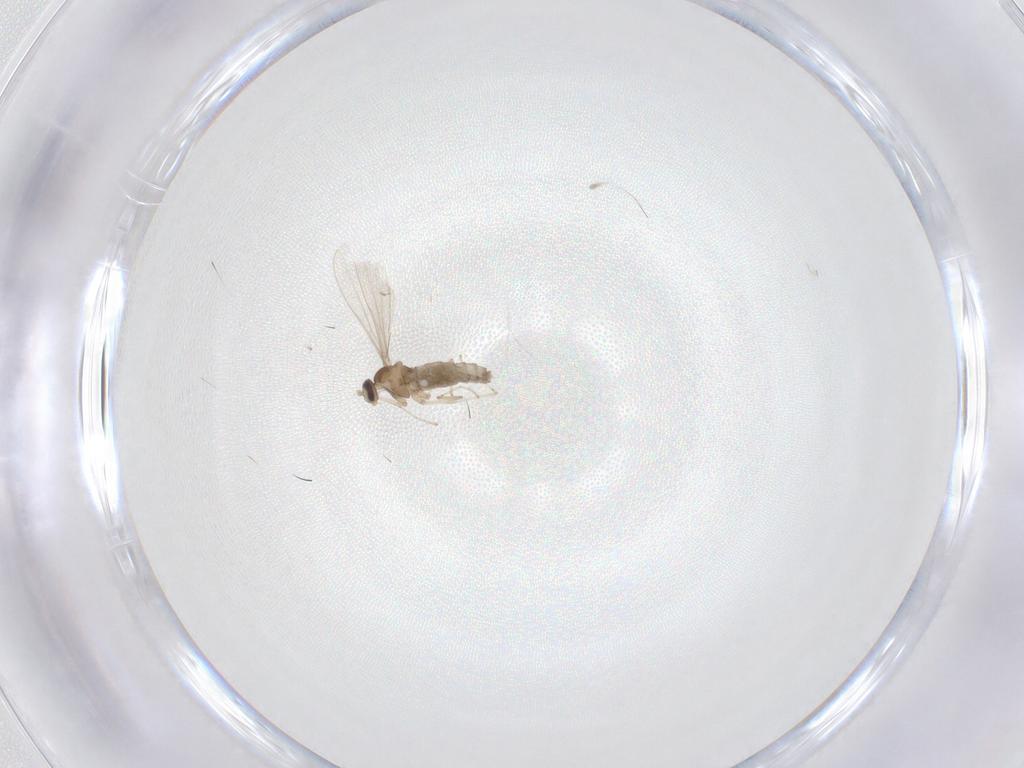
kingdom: Animalia
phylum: Arthropoda
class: Insecta
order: Diptera
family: Cecidomyiidae
